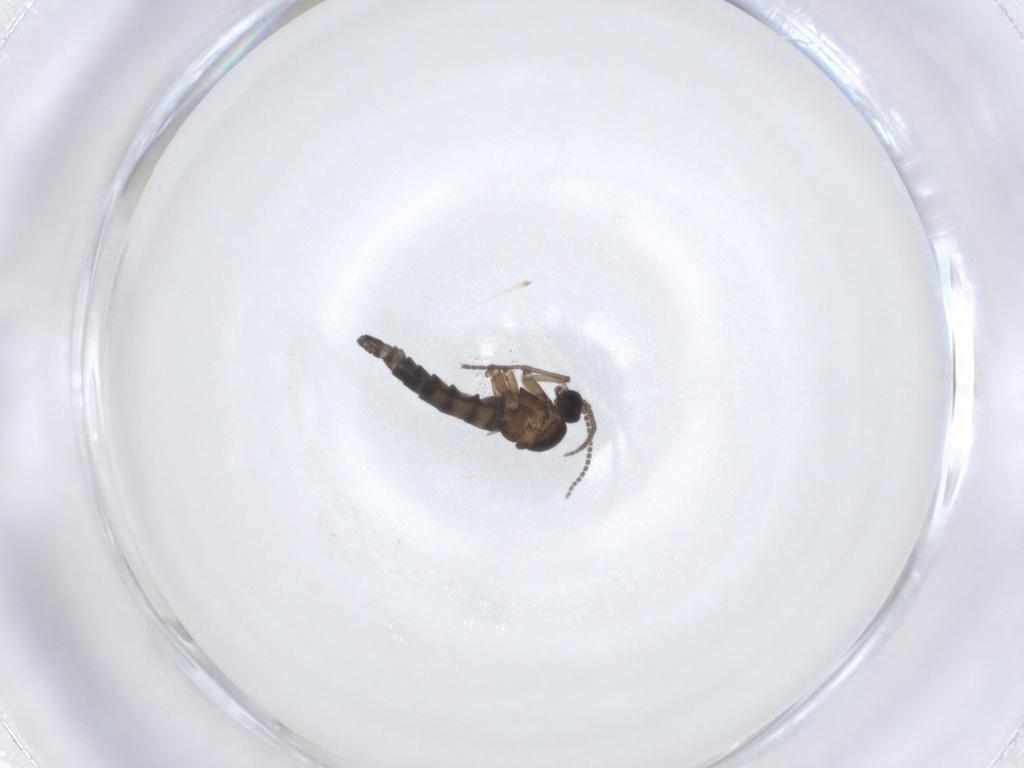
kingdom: Animalia
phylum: Arthropoda
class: Insecta
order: Diptera
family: Sciaridae
